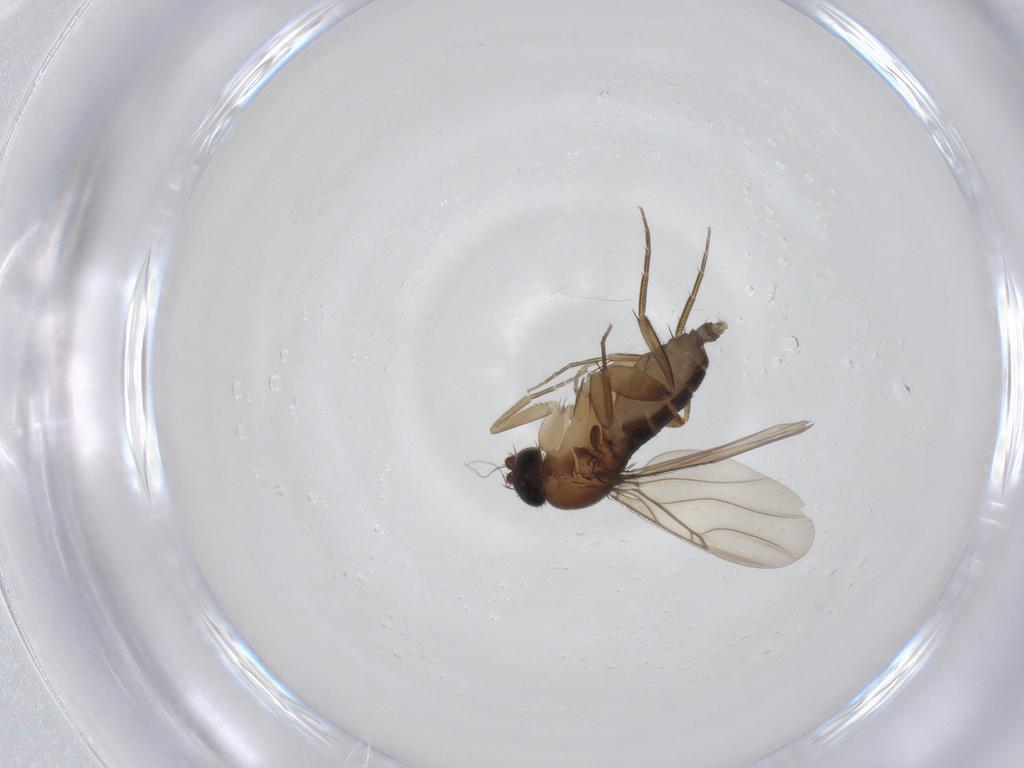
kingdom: Animalia
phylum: Arthropoda
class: Insecta
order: Diptera
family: Phoridae
